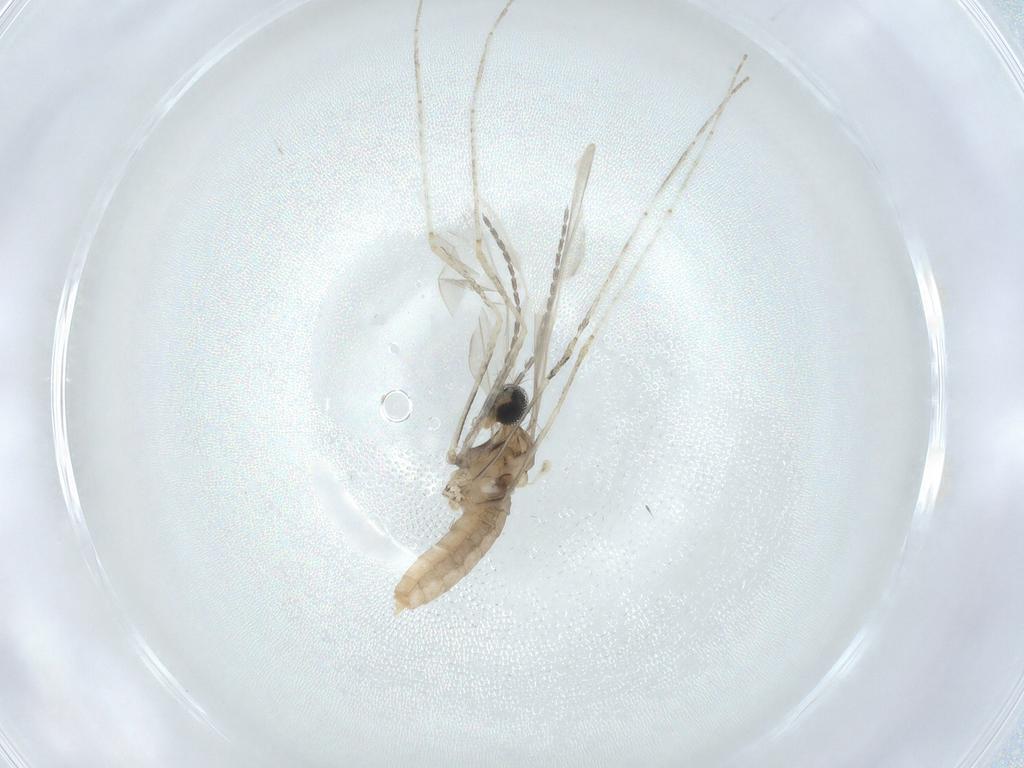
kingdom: Animalia
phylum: Arthropoda
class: Insecta
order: Diptera
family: Cecidomyiidae
